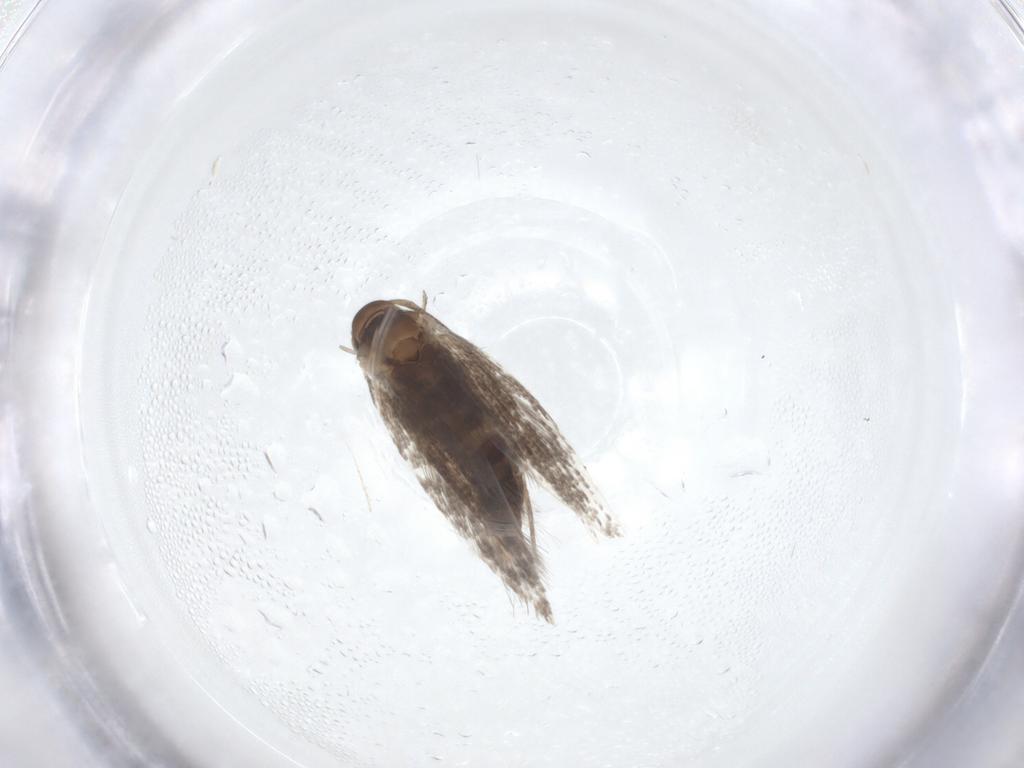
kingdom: Animalia
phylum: Arthropoda
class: Insecta
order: Lepidoptera
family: Elachistidae
